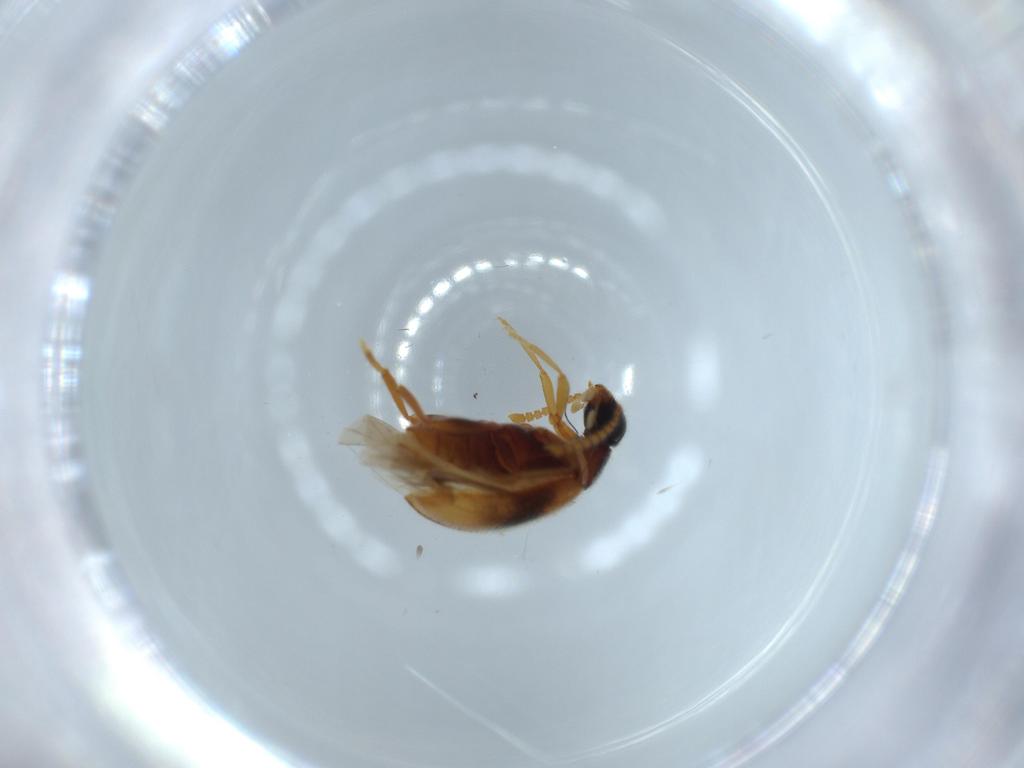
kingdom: Animalia
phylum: Arthropoda
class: Insecta
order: Coleoptera
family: Aderidae
